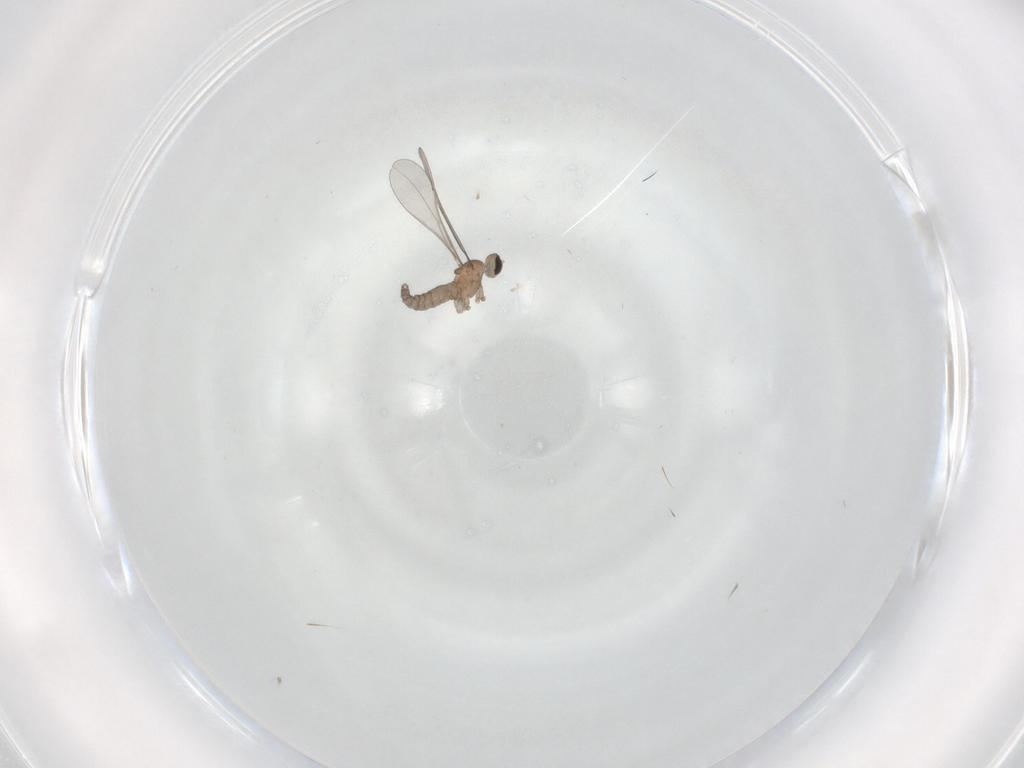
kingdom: Animalia
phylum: Arthropoda
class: Insecta
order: Diptera
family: Cecidomyiidae
